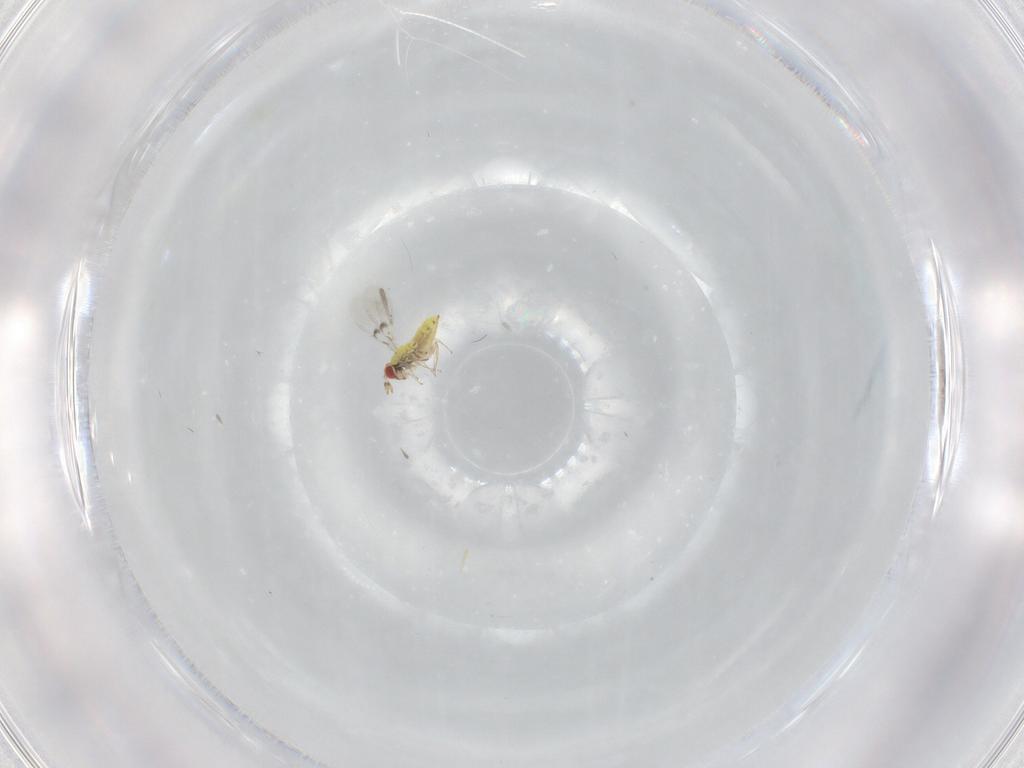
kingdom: Animalia
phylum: Arthropoda
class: Insecta
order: Hymenoptera
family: Trichogrammatidae
